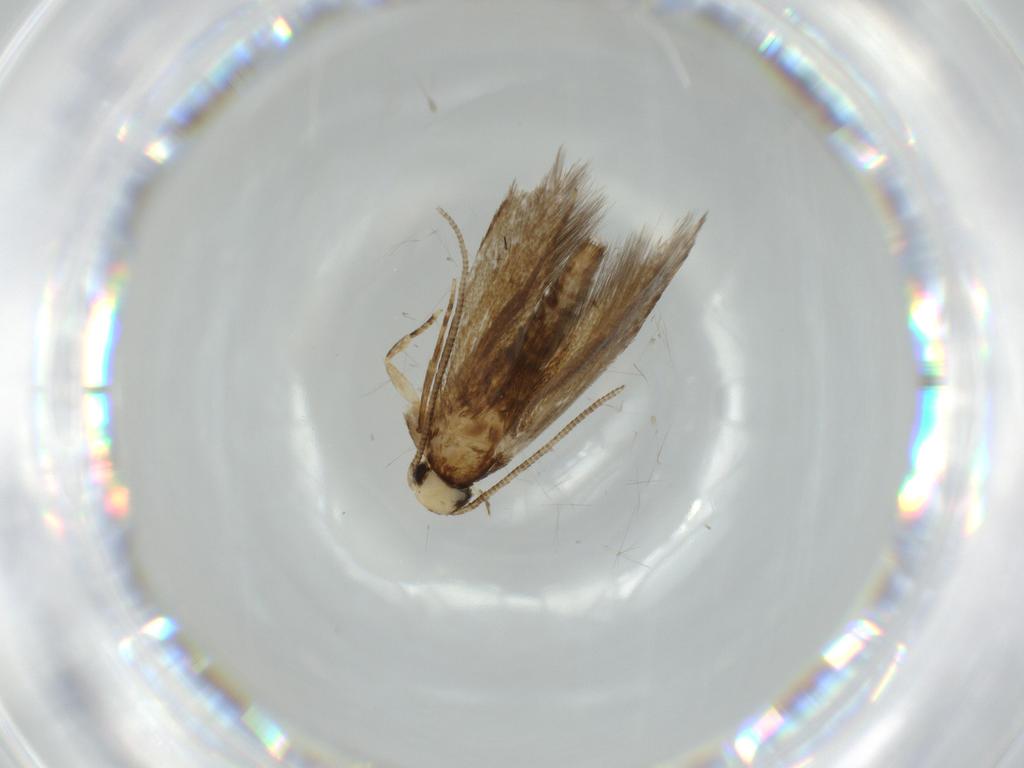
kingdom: Animalia
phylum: Arthropoda
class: Insecta
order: Lepidoptera
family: Tineidae
